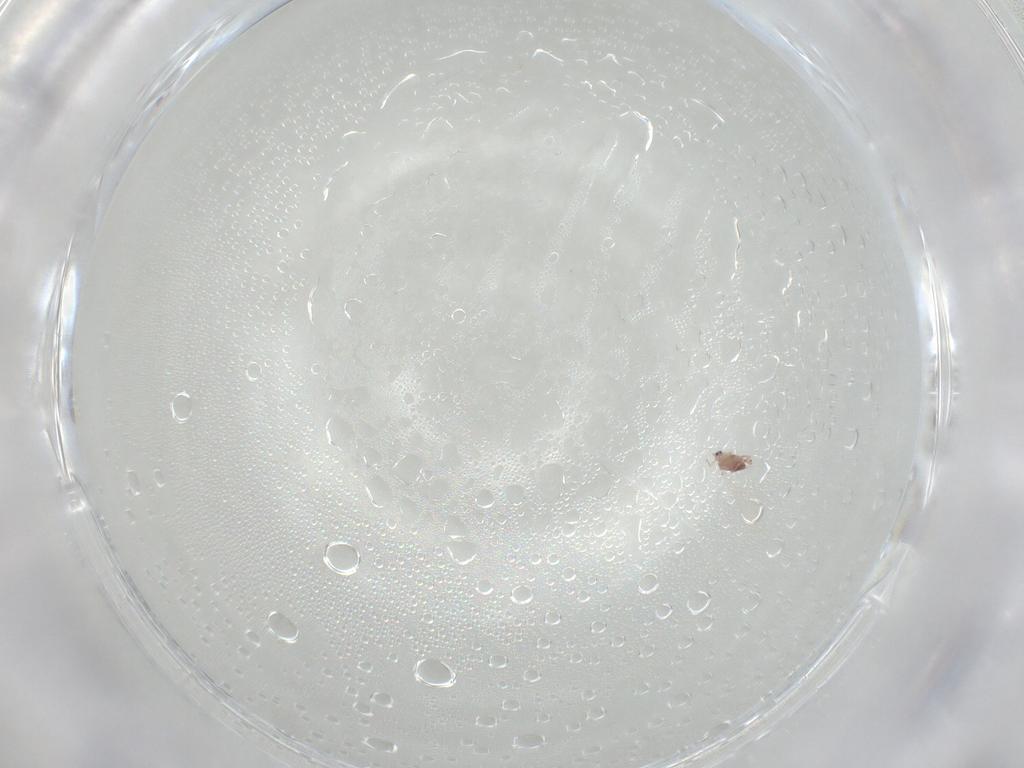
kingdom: Animalia
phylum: Arthropoda
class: Insecta
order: Hemiptera
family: Diaspididae
